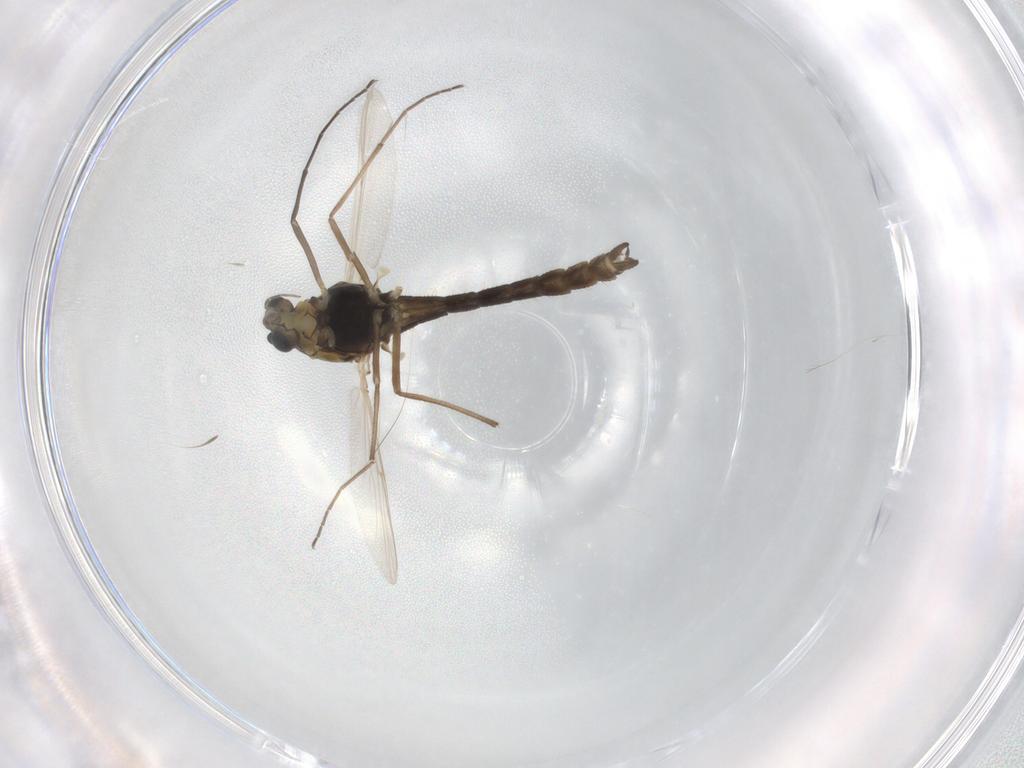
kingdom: Animalia
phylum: Arthropoda
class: Insecta
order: Diptera
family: Chironomidae
